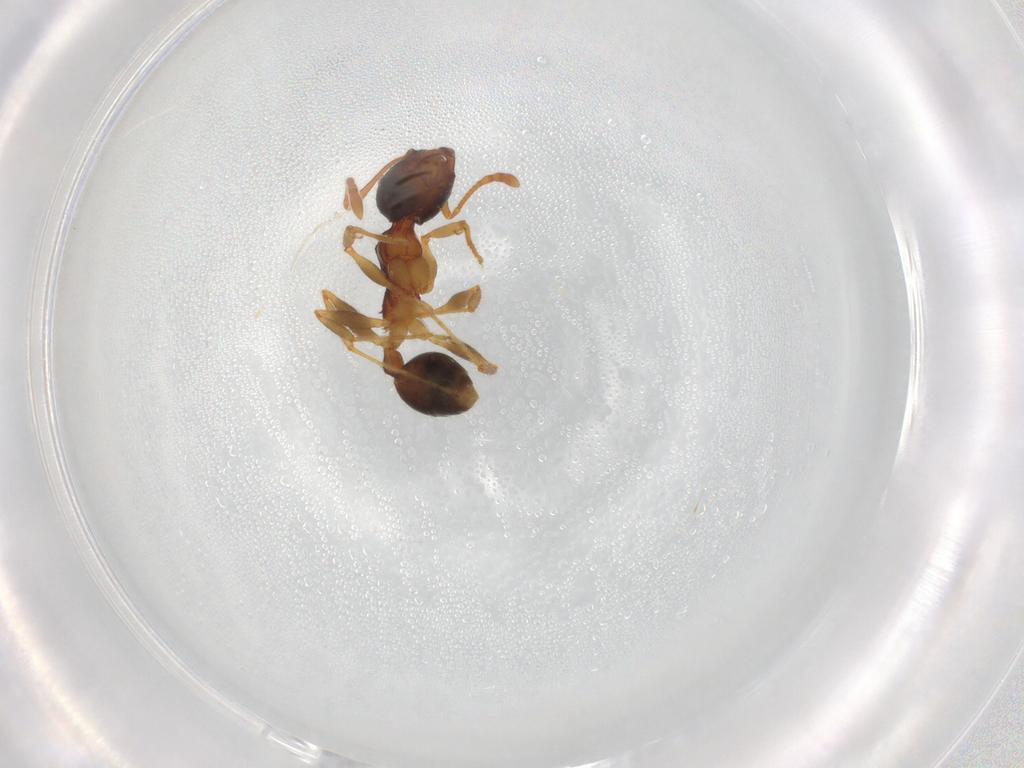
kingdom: Animalia
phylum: Arthropoda
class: Insecta
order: Hymenoptera
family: Formicidae
